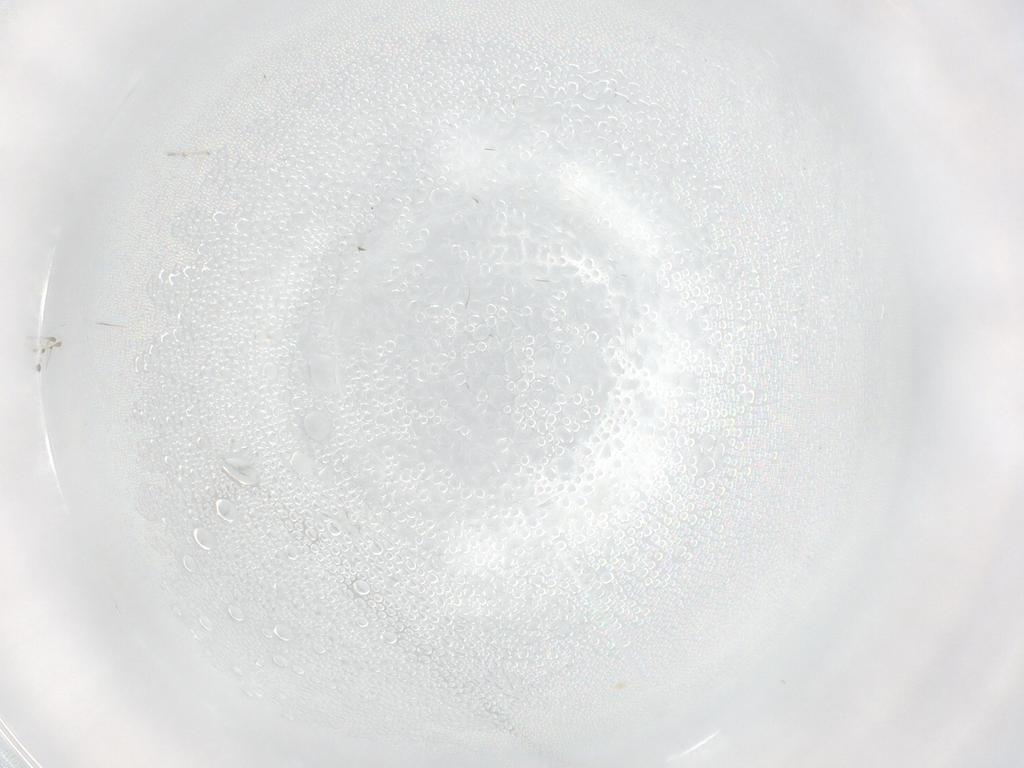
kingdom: Animalia
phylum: Arthropoda
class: Insecta
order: Diptera
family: Cecidomyiidae
